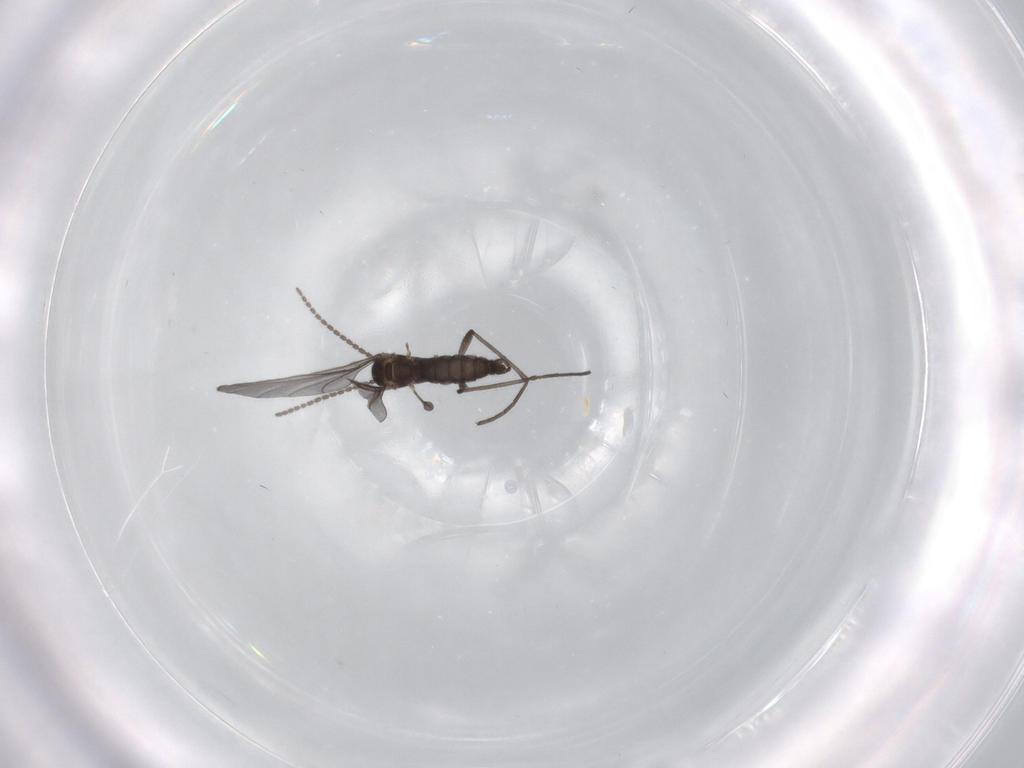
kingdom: Animalia
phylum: Arthropoda
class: Insecta
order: Diptera
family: Sciaridae
